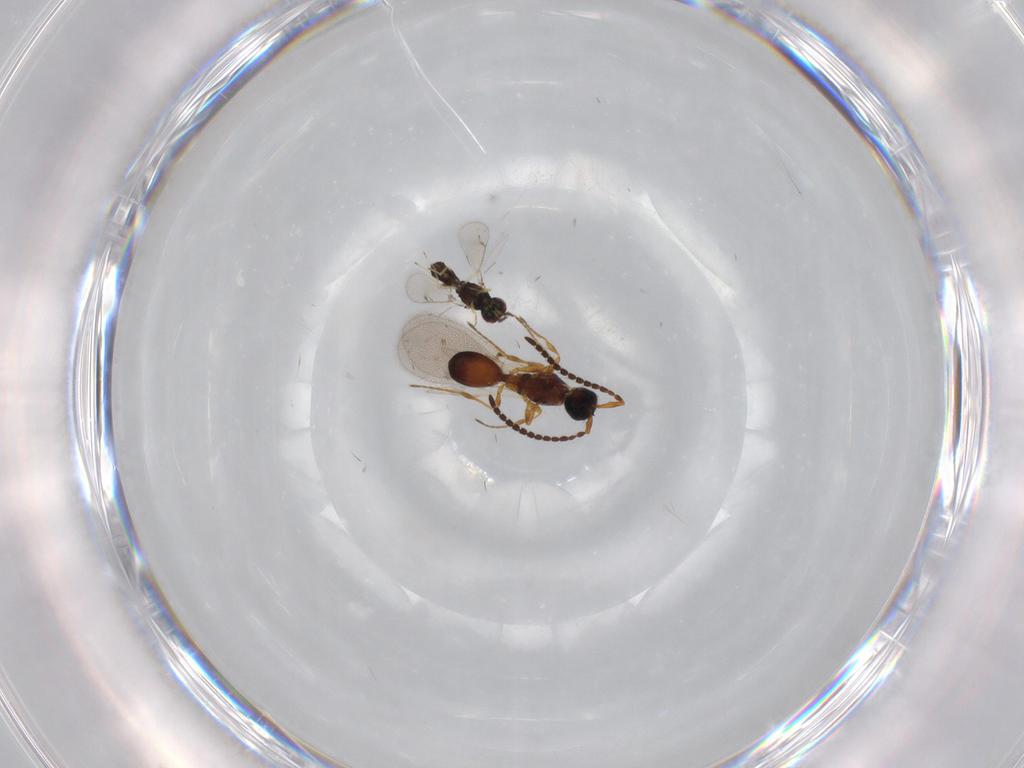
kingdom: Animalia
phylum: Arthropoda
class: Insecta
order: Hymenoptera
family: Diapriidae
